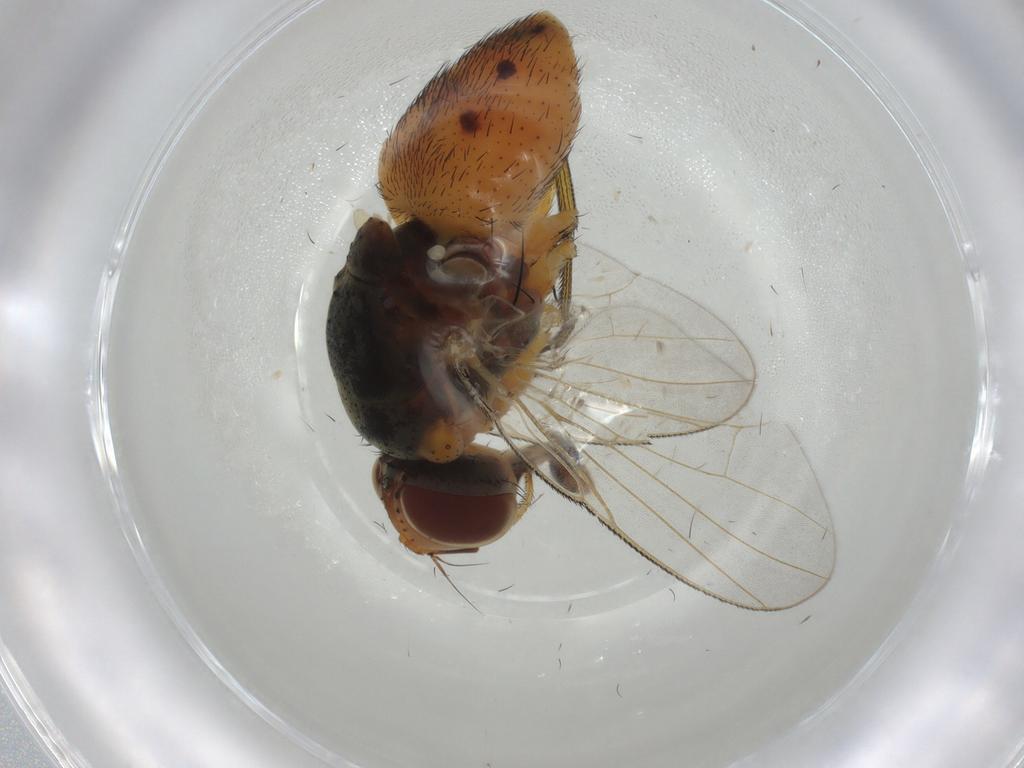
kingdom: Animalia
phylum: Arthropoda
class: Insecta
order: Diptera
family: Muscidae
